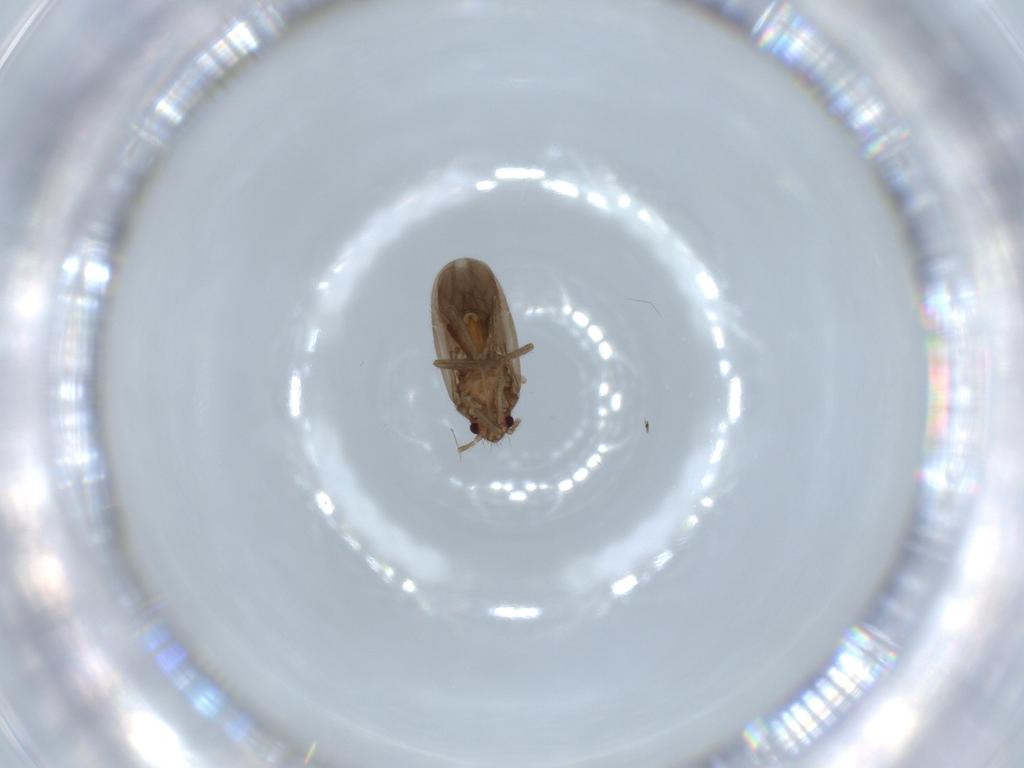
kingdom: Animalia
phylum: Arthropoda
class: Insecta
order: Hemiptera
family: Ceratocombidae
